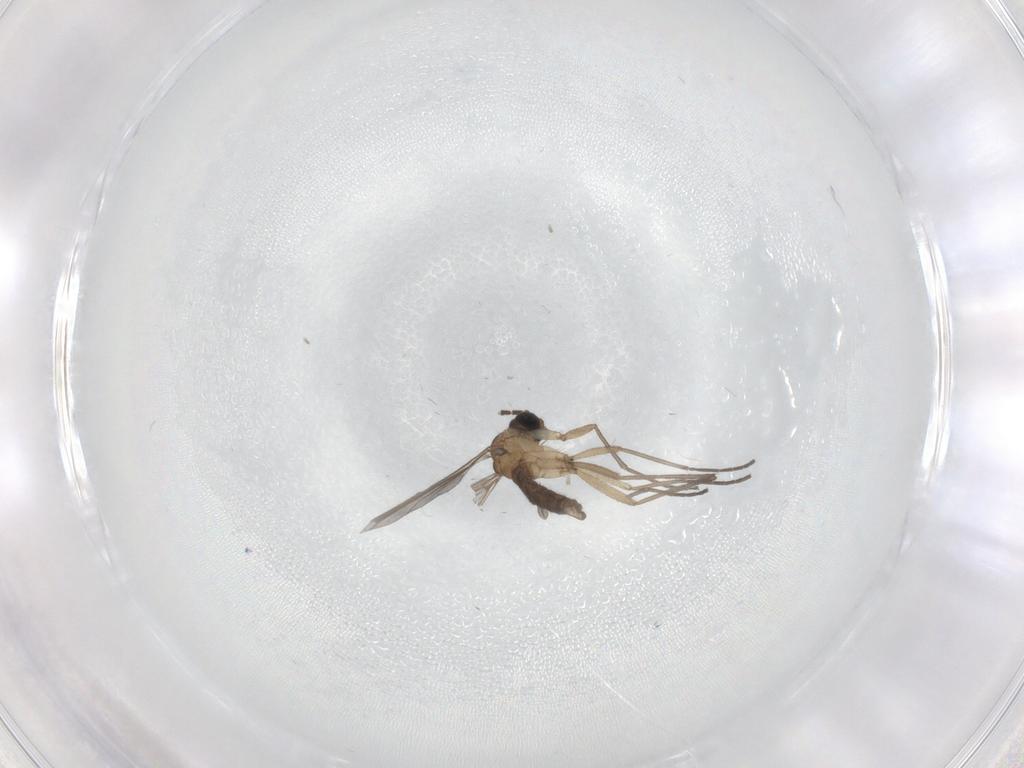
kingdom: Animalia
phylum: Arthropoda
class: Insecta
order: Diptera
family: Sciaridae
